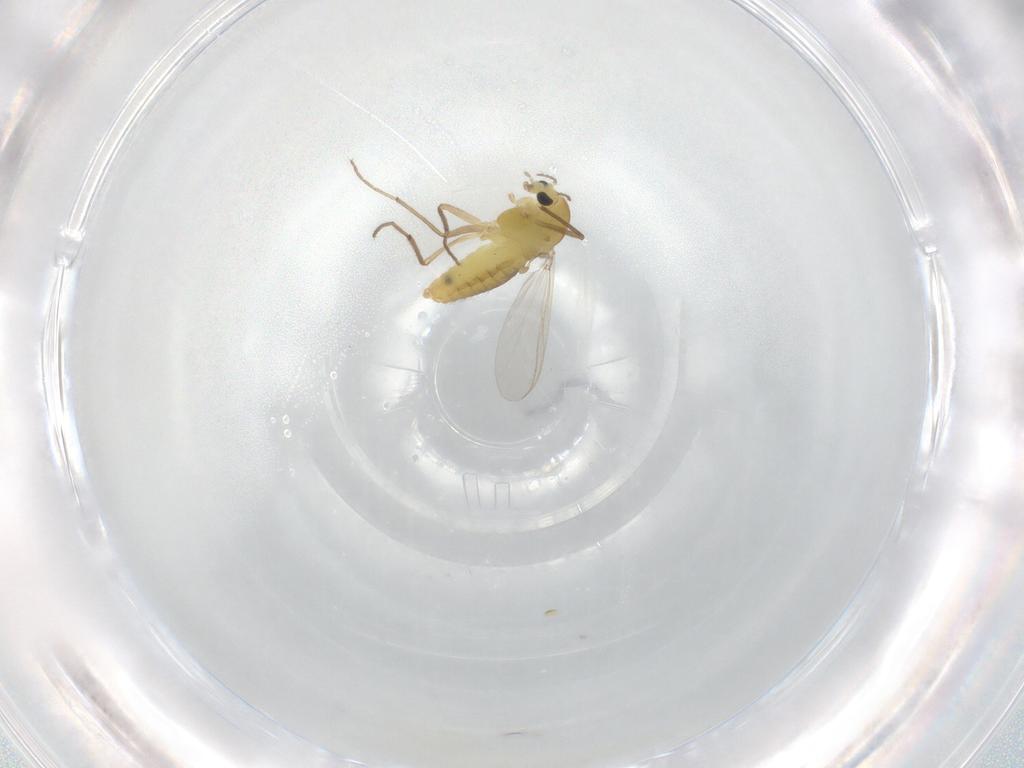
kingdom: Animalia
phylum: Arthropoda
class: Insecta
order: Diptera
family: Chironomidae
